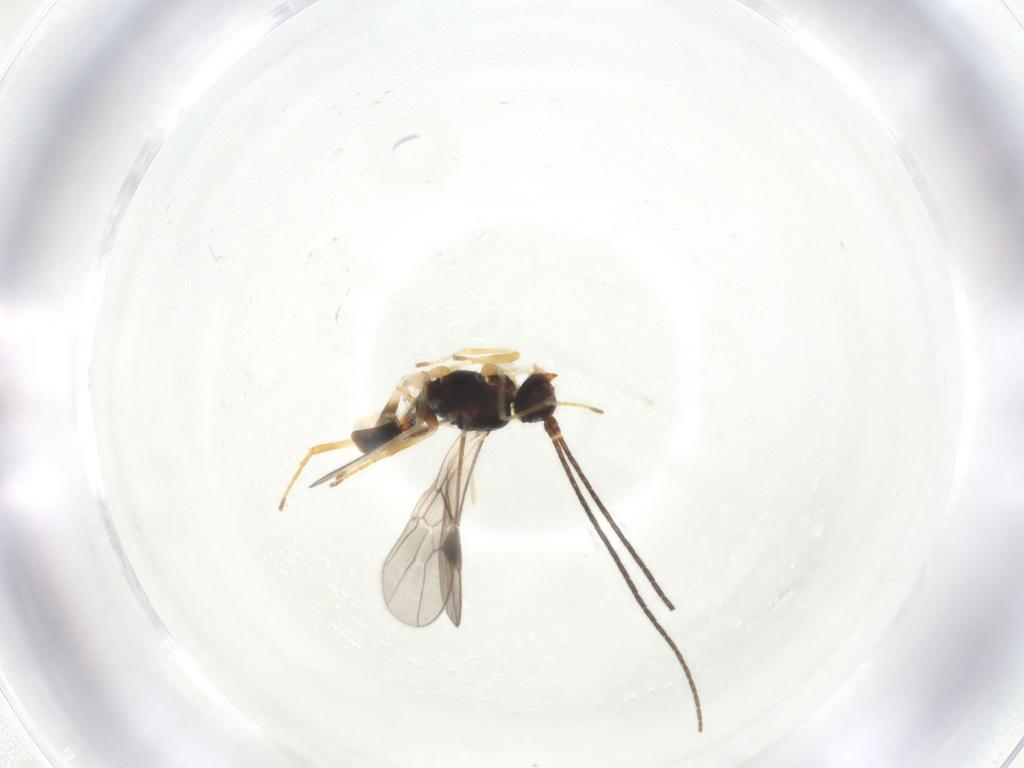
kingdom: Animalia
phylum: Arthropoda
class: Insecta
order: Hymenoptera
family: Braconidae
